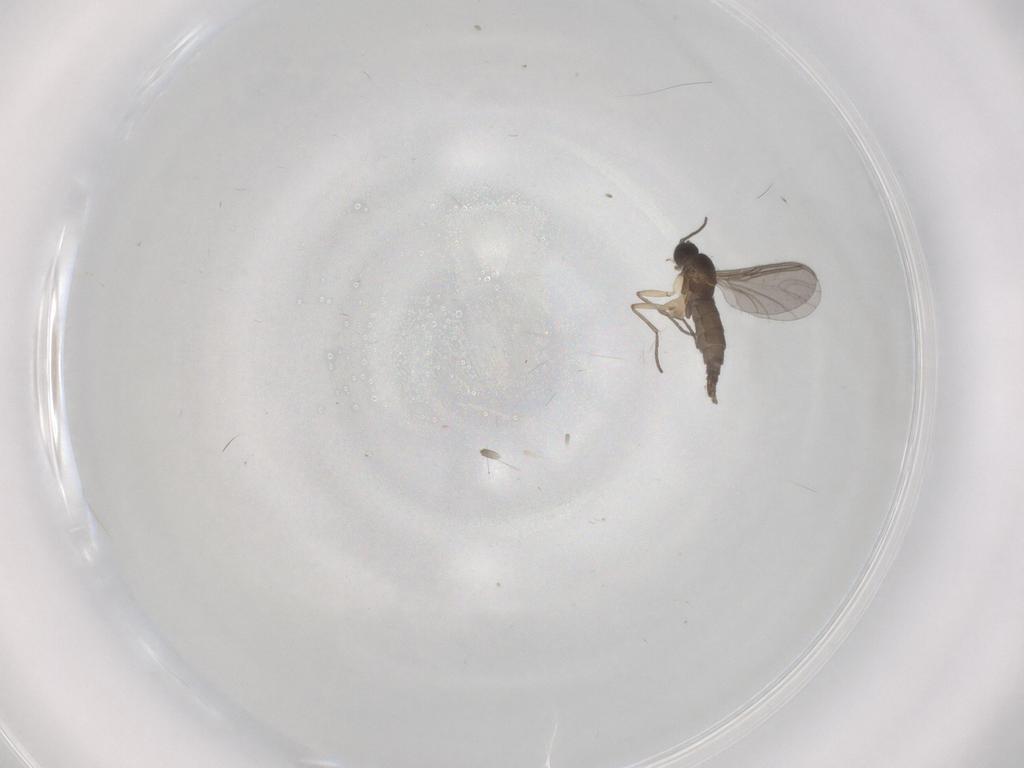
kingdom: Animalia
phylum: Arthropoda
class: Insecta
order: Diptera
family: Sciaridae
